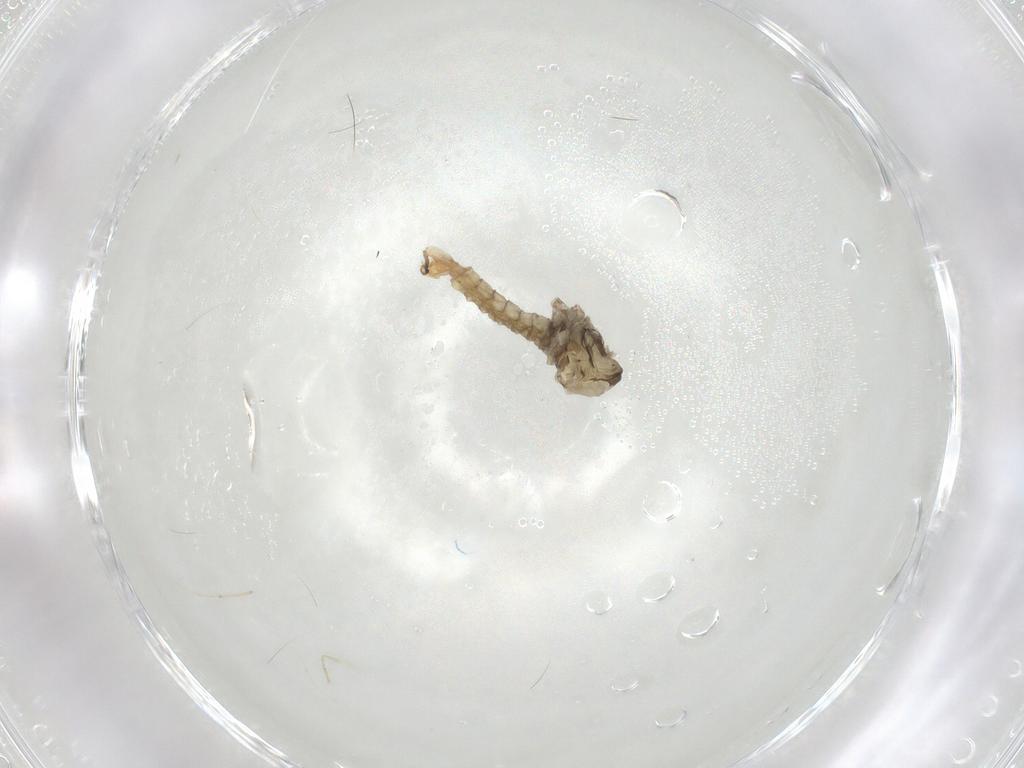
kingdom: Animalia
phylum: Arthropoda
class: Insecta
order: Diptera
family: Cecidomyiidae
